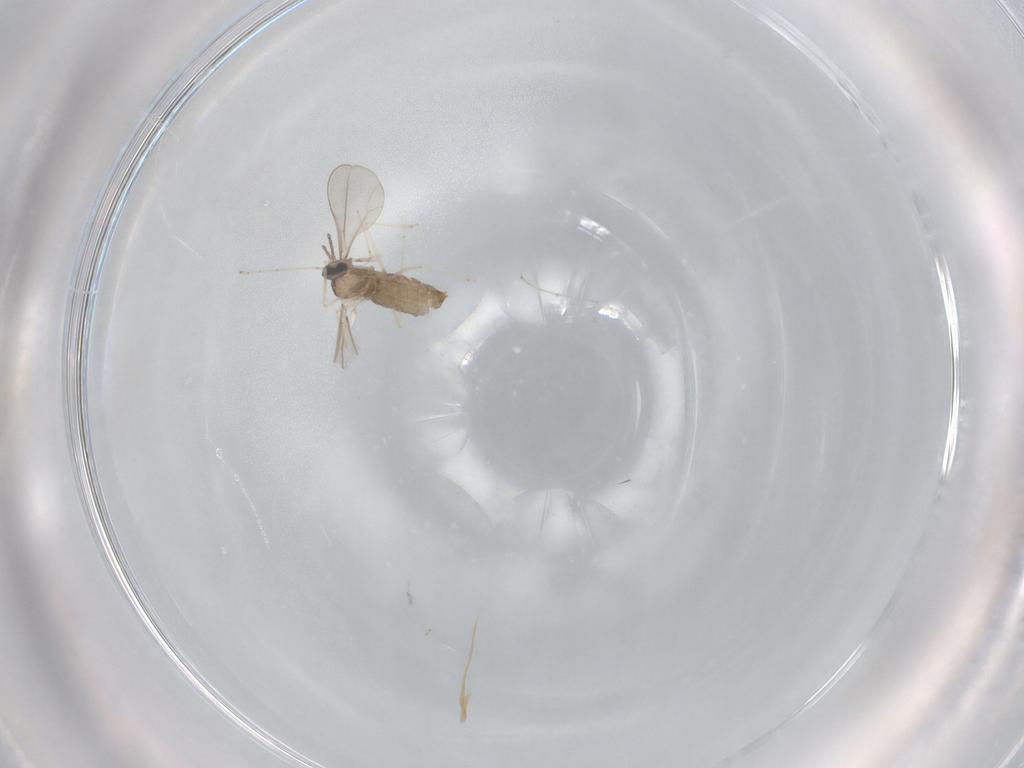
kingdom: Animalia
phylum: Arthropoda
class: Insecta
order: Diptera
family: Cecidomyiidae
